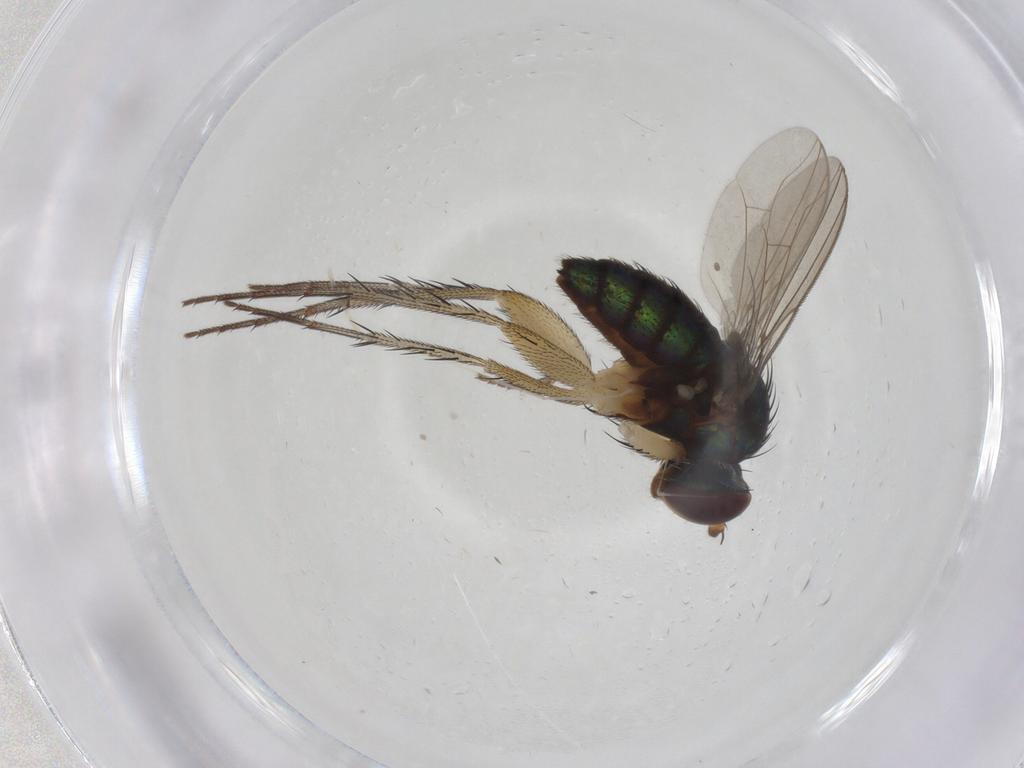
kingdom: Animalia
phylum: Arthropoda
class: Insecta
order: Diptera
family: Dolichopodidae
